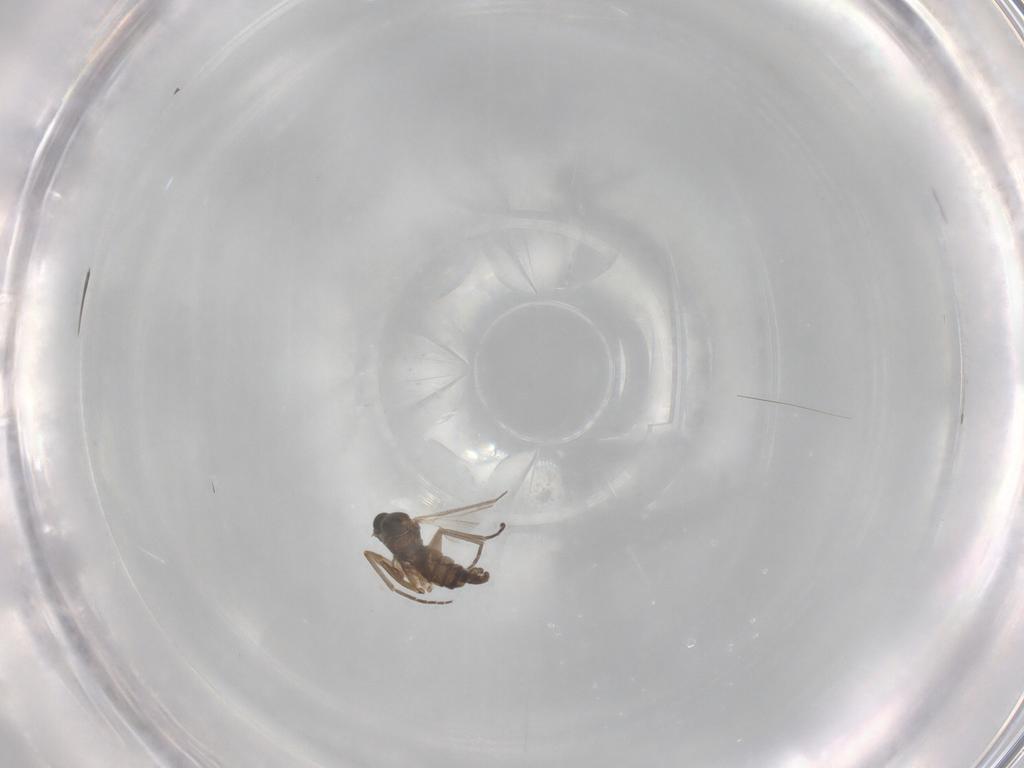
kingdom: Animalia
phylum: Arthropoda
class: Insecta
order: Diptera
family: Sciaridae
